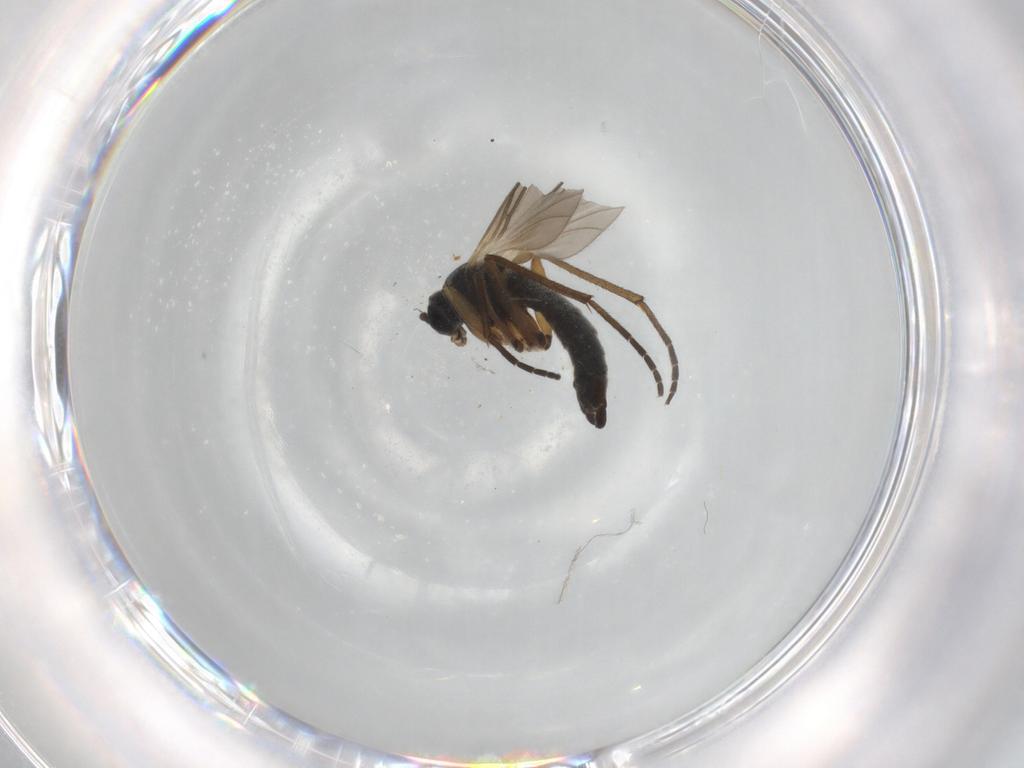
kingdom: Animalia
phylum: Arthropoda
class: Insecta
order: Diptera
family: Sciaridae
